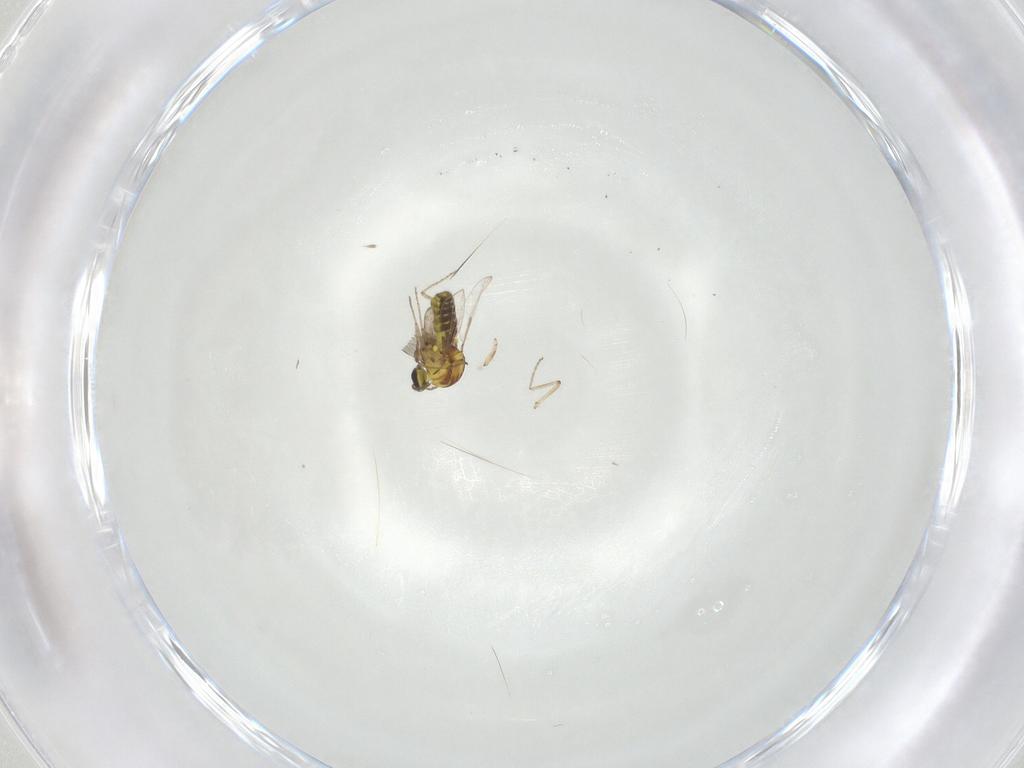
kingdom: Animalia
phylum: Arthropoda
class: Insecta
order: Diptera
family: Ceratopogonidae
